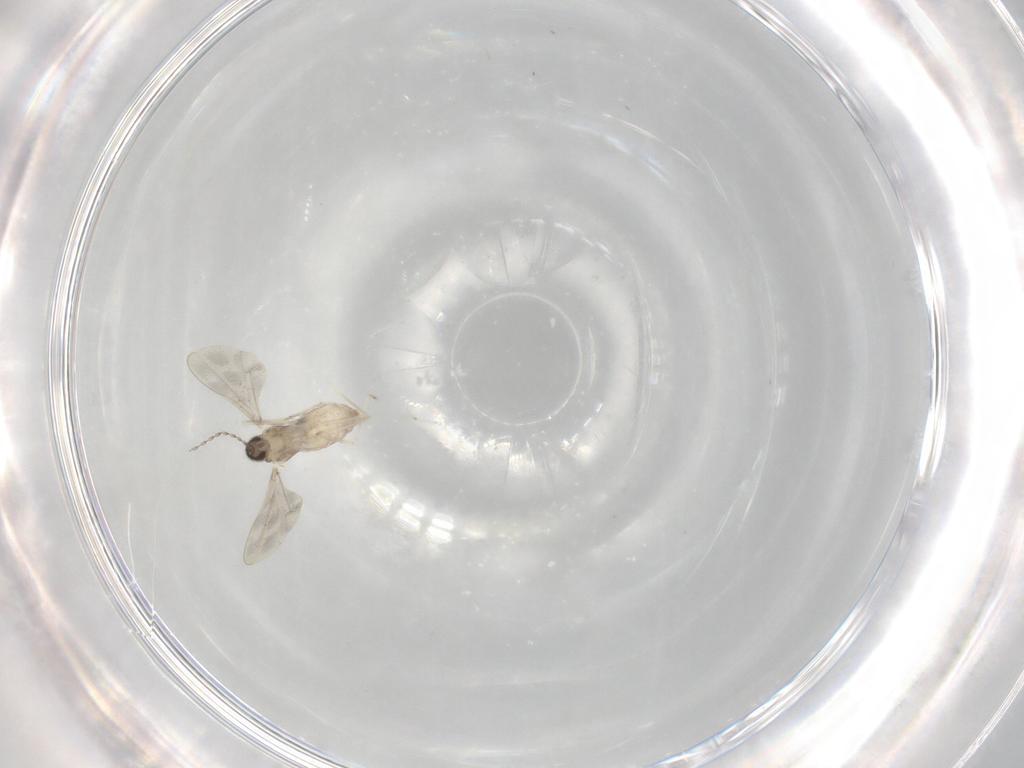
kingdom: Animalia
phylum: Arthropoda
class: Insecta
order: Diptera
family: Cecidomyiidae
